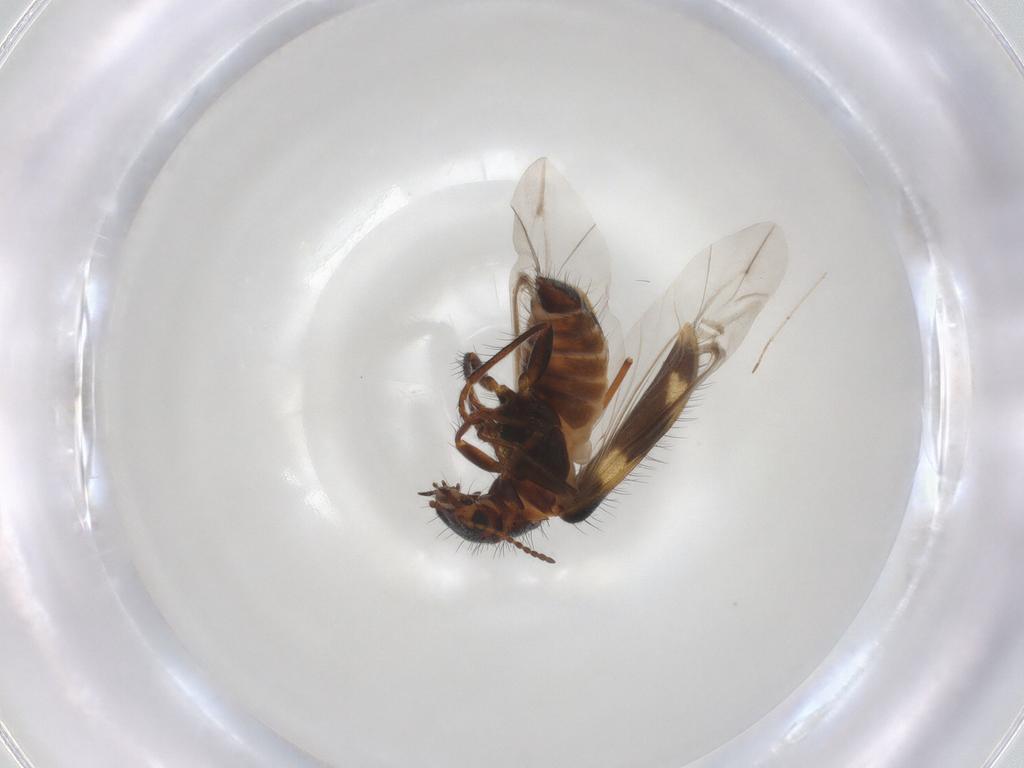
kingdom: Animalia
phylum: Arthropoda
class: Insecta
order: Coleoptera
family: Melyridae
